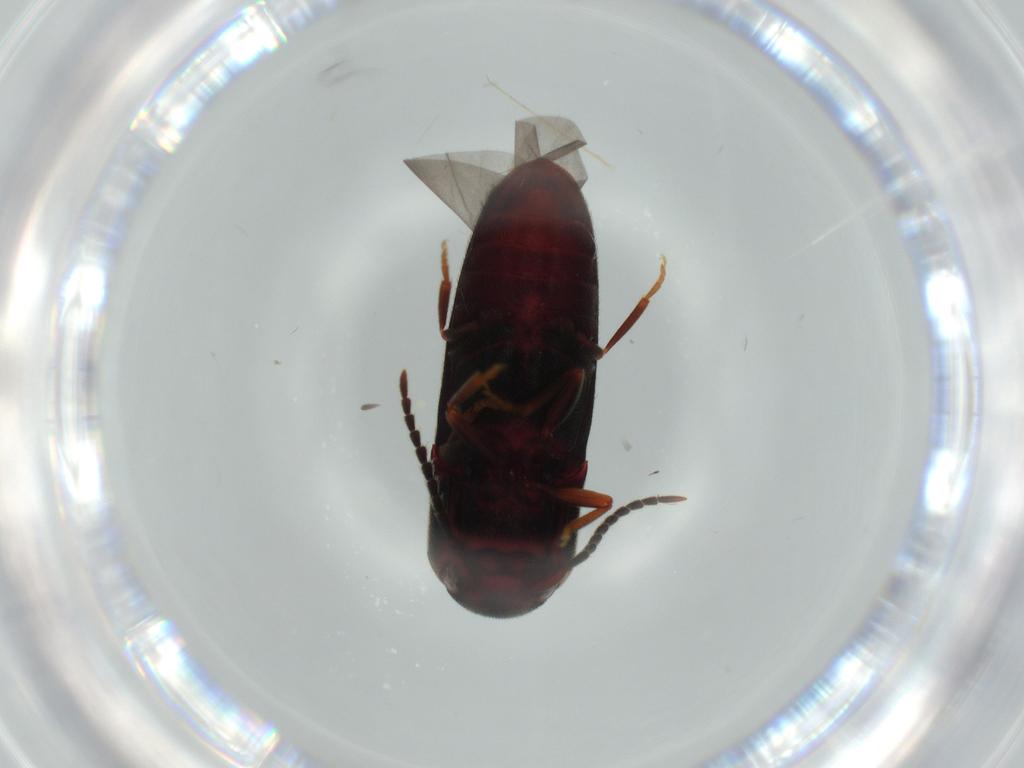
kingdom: Animalia
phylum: Arthropoda
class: Insecta
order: Coleoptera
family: Eucnemidae
